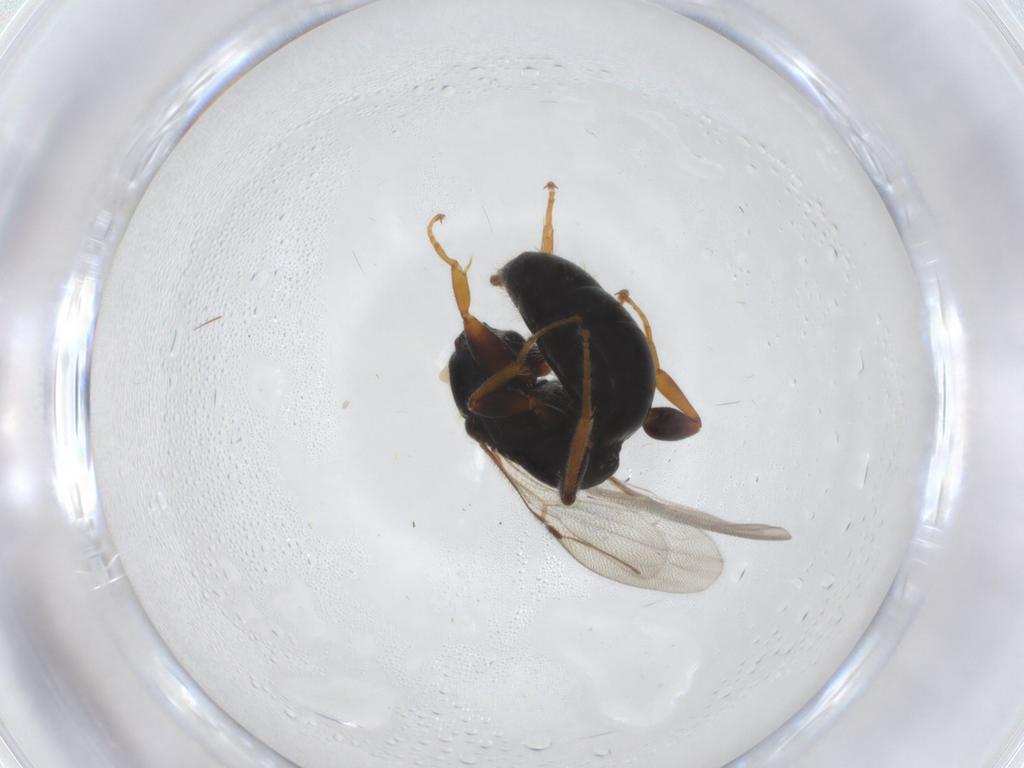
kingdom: Animalia
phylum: Arthropoda
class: Insecta
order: Hymenoptera
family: Bethylidae
